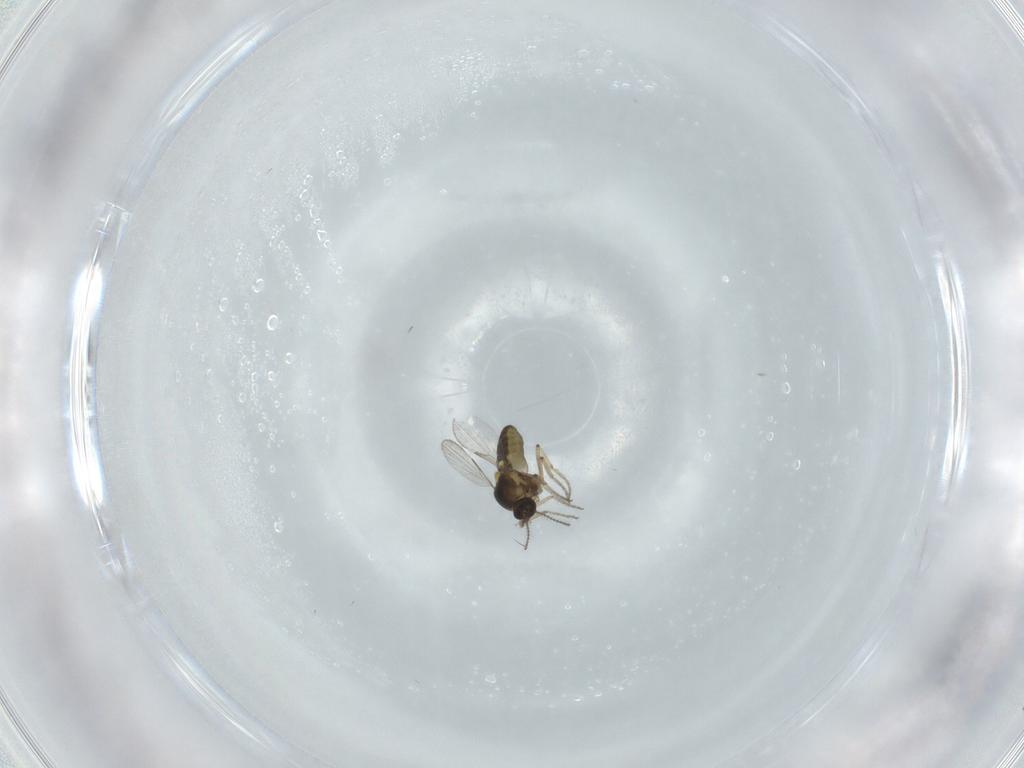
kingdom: Animalia
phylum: Arthropoda
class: Insecta
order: Diptera
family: Ceratopogonidae
